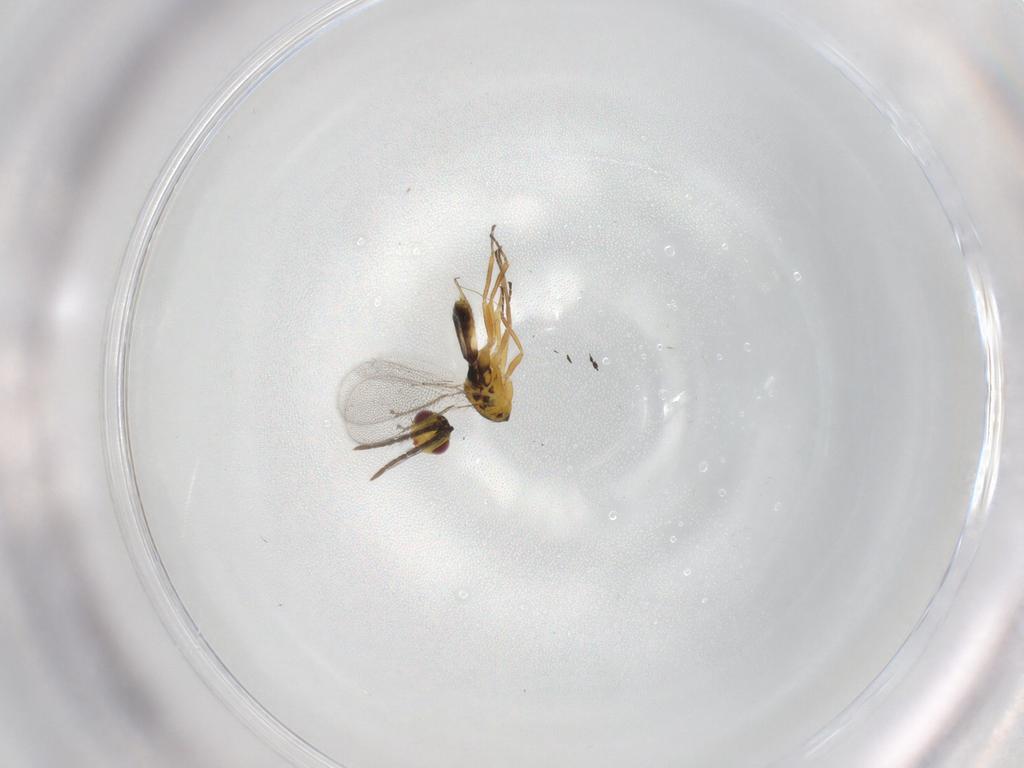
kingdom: Animalia
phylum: Arthropoda
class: Insecta
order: Hymenoptera
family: Eulophidae
